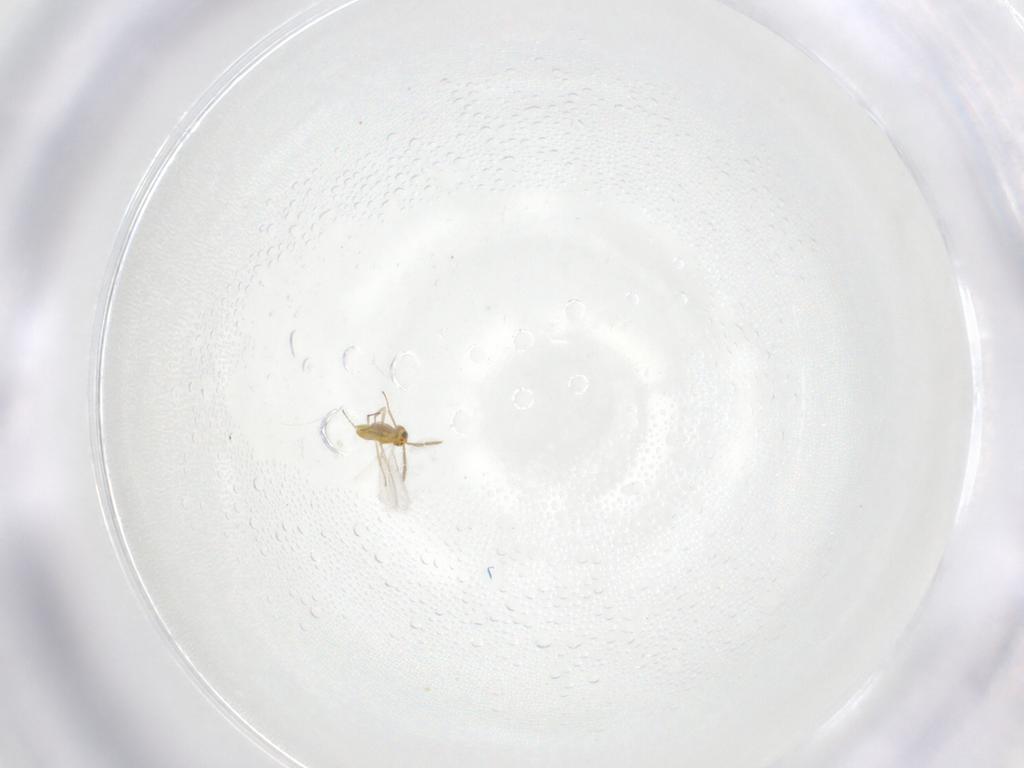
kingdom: Animalia
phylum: Arthropoda
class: Insecta
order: Hymenoptera
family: Aphelinidae
